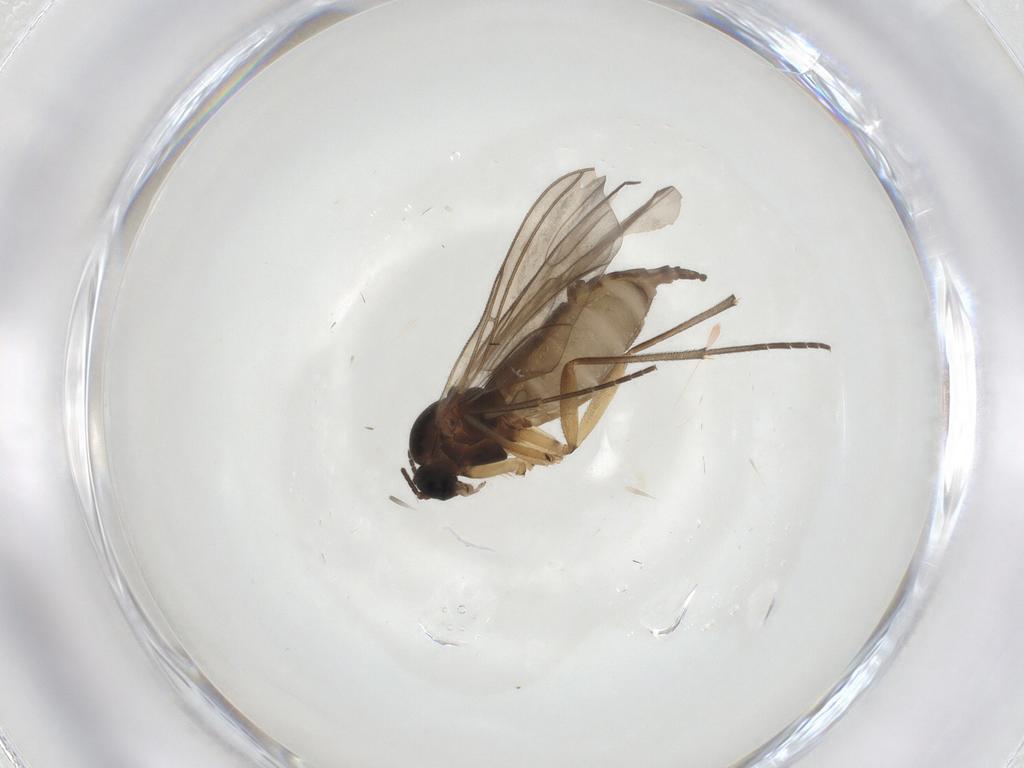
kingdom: Animalia
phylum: Arthropoda
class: Insecta
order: Diptera
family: Sciaridae
